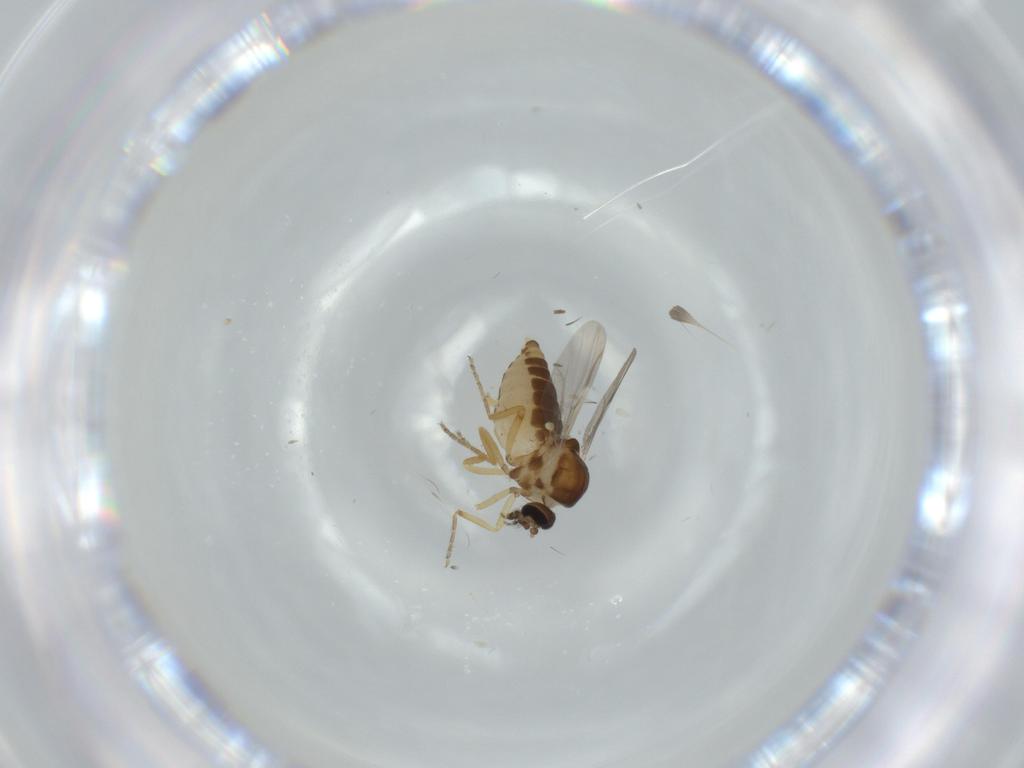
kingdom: Animalia
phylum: Arthropoda
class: Insecta
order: Diptera
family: Ceratopogonidae
